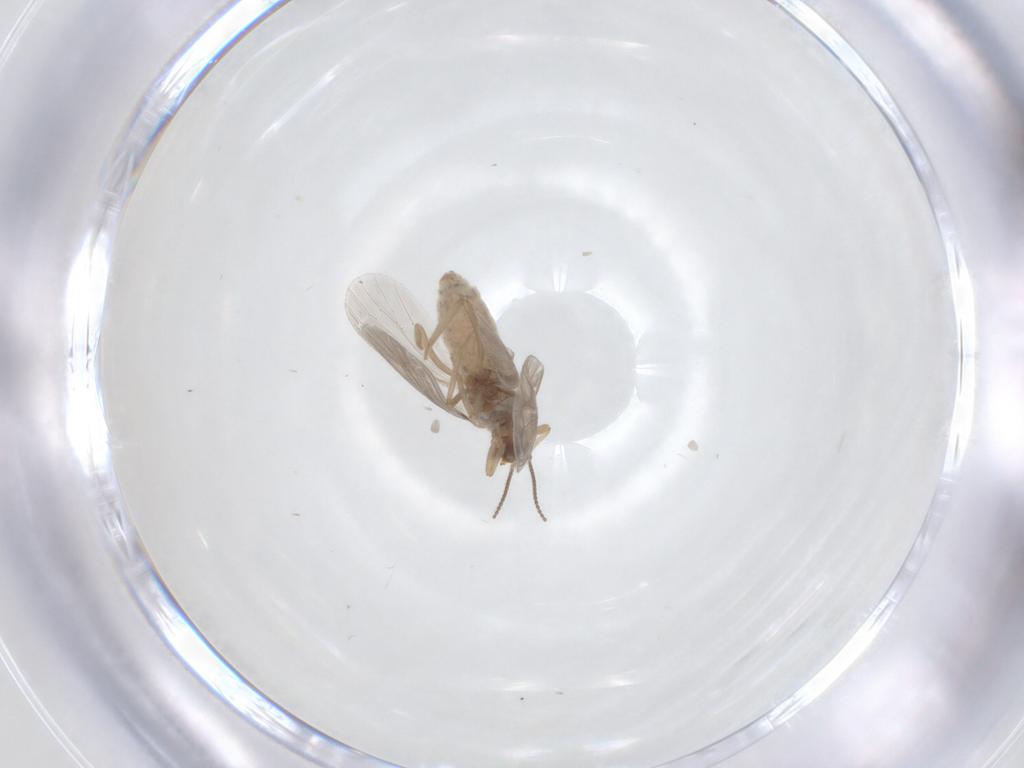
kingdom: Animalia
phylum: Arthropoda
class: Insecta
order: Neuroptera
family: Coniopterygidae
